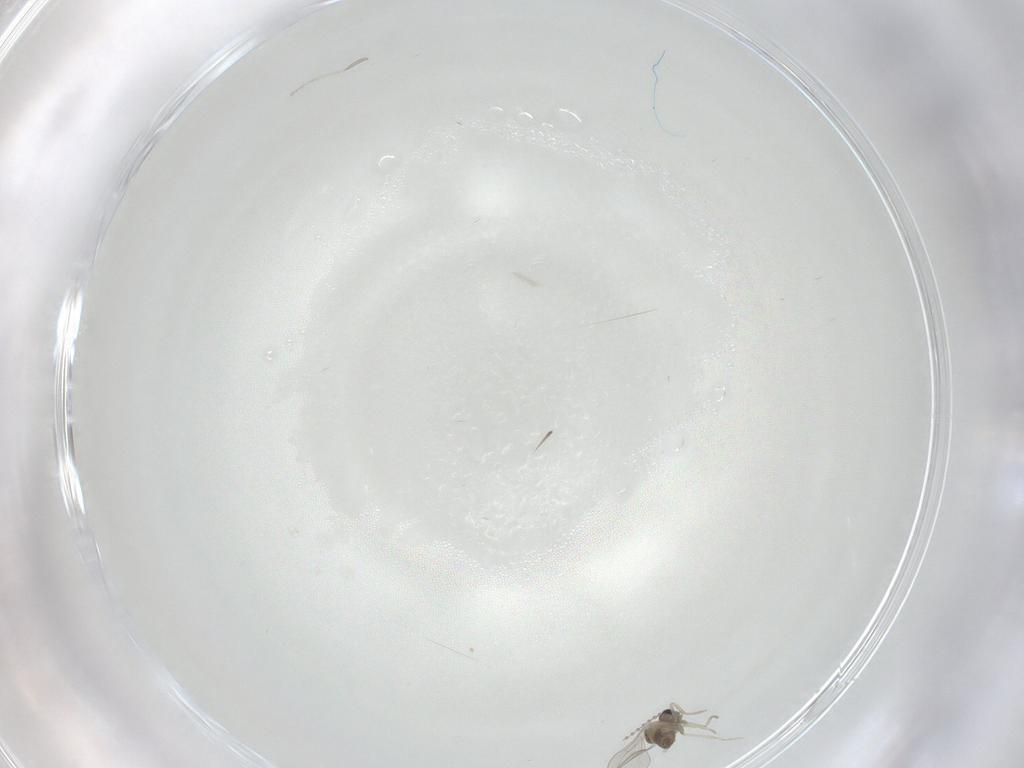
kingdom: Animalia
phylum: Arthropoda
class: Insecta
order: Diptera
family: Cecidomyiidae
